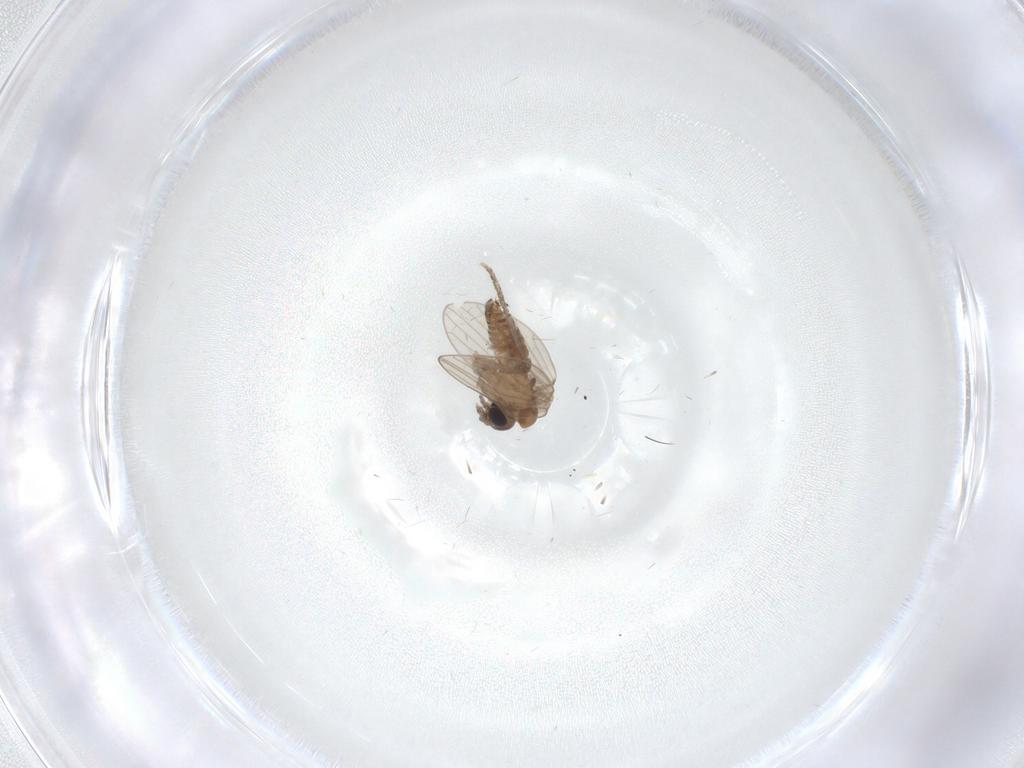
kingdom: Animalia
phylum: Arthropoda
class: Insecta
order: Diptera
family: Psychodidae
